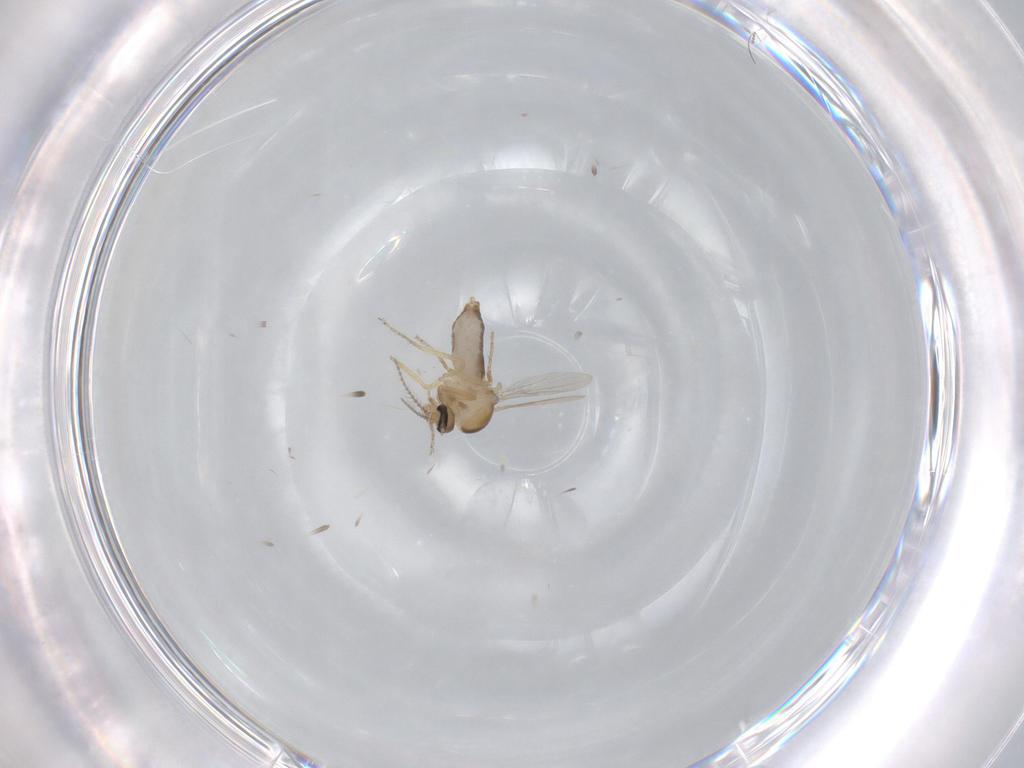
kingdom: Animalia
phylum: Arthropoda
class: Insecta
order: Diptera
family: Ceratopogonidae
